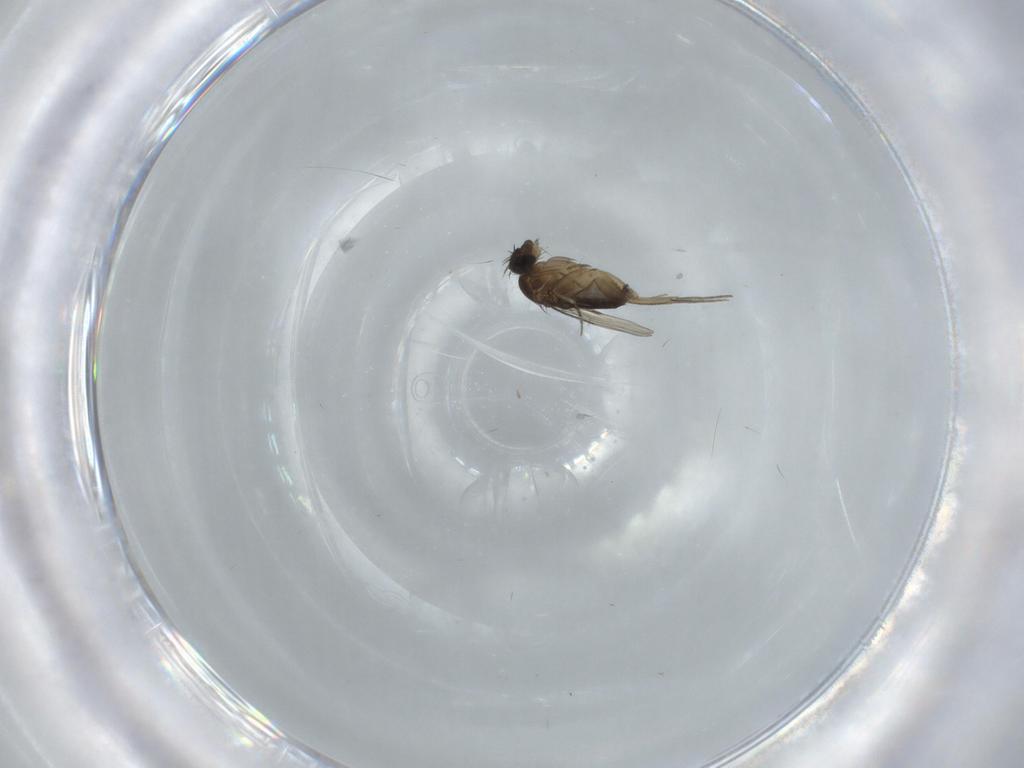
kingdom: Animalia
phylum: Arthropoda
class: Insecta
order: Diptera
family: Phoridae
